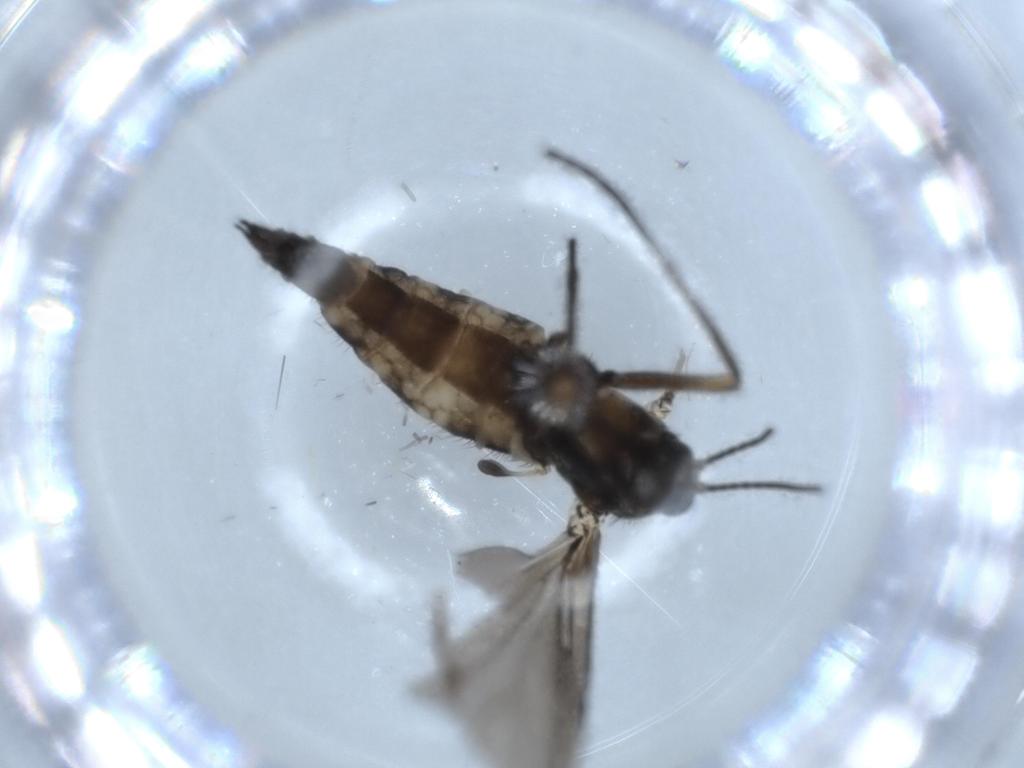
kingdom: Animalia
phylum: Arthropoda
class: Insecta
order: Diptera
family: Sciaridae
